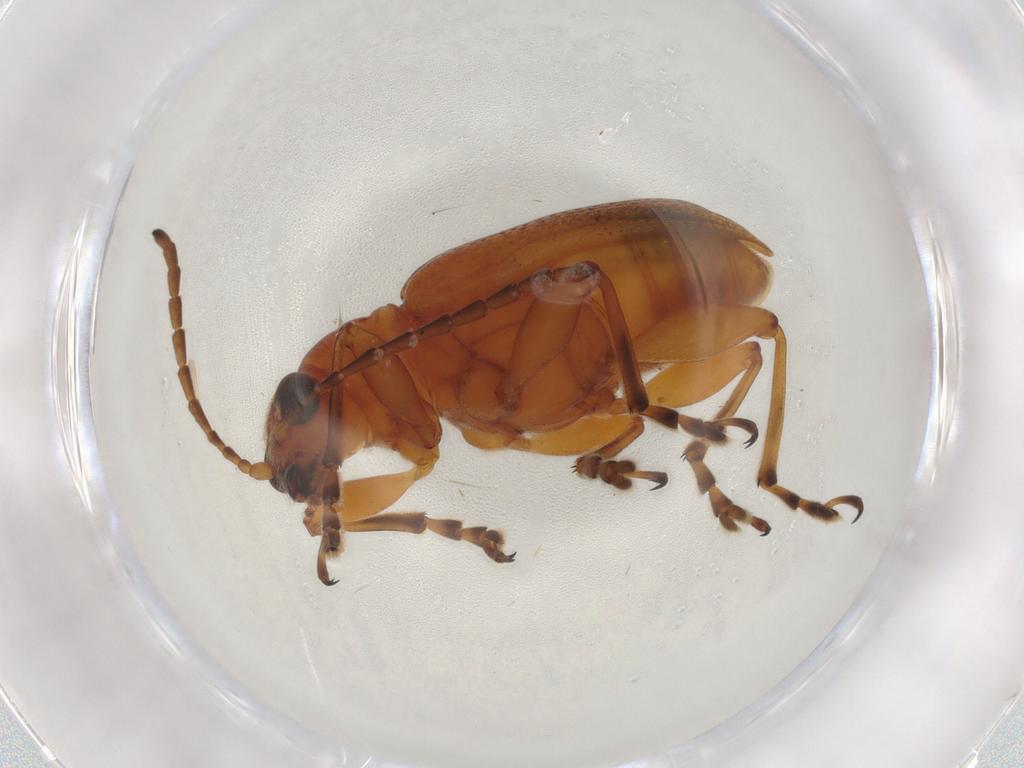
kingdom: Animalia
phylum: Arthropoda
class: Insecta
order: Coleoptera
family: Chrysomelidae
